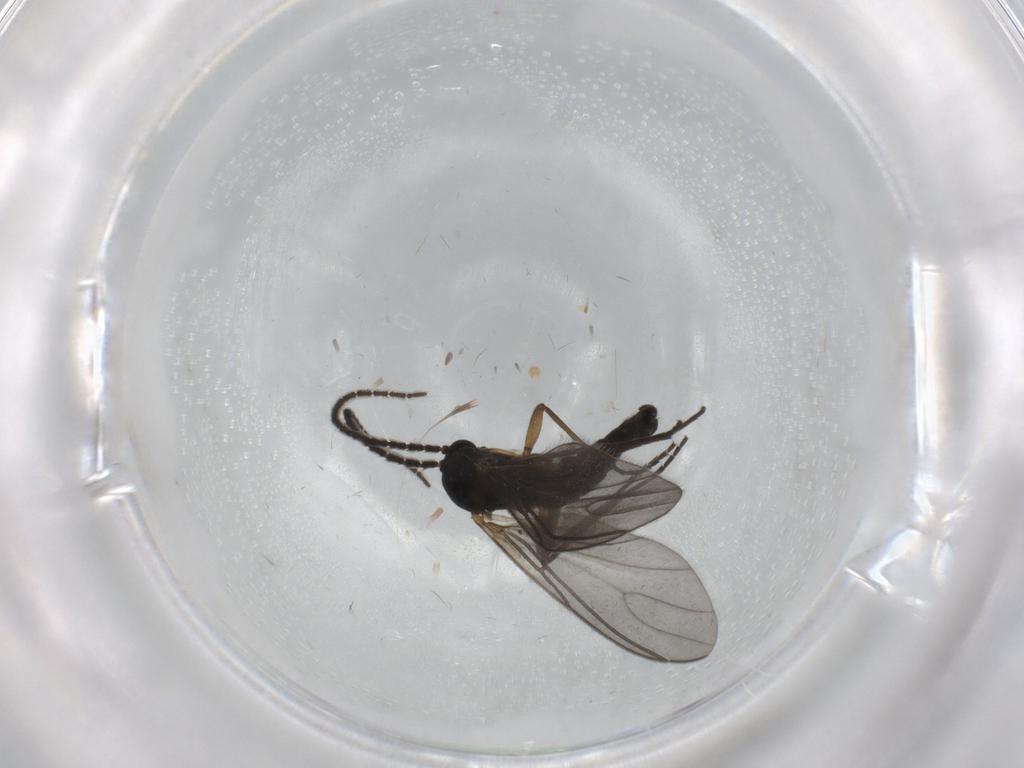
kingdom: Animalia
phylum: Arthropoda
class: Insecta
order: Diptera
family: Sciaridae
